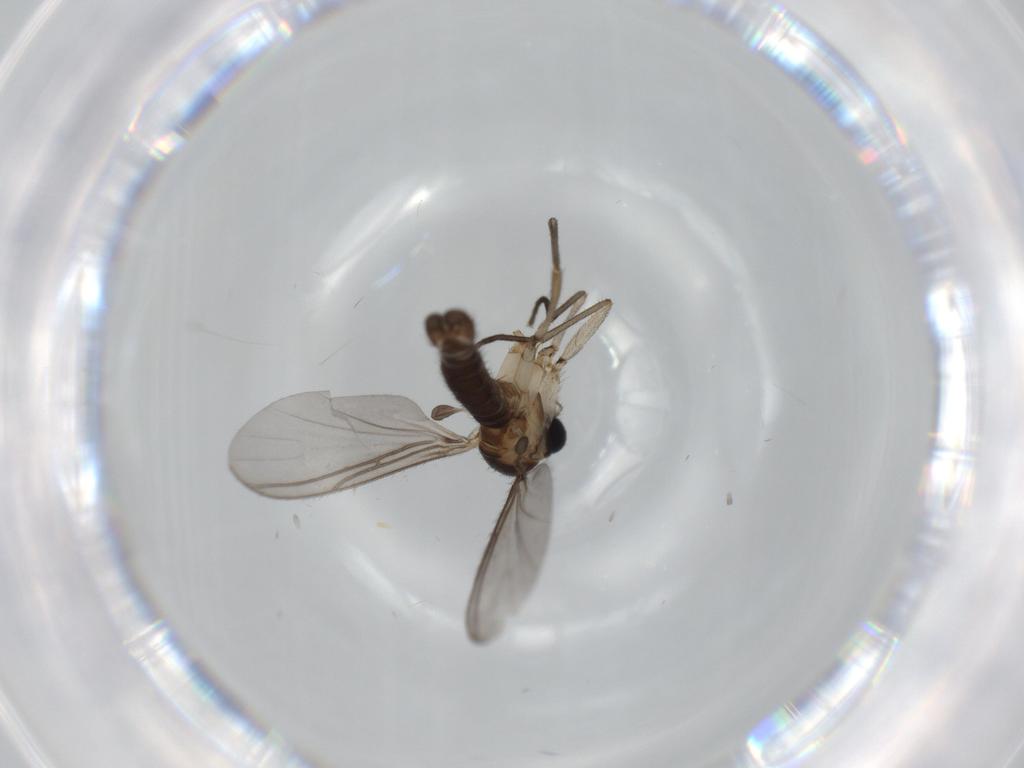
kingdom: Animalia
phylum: Arthropoda
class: Insecta
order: Diptera
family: Sciaridae
